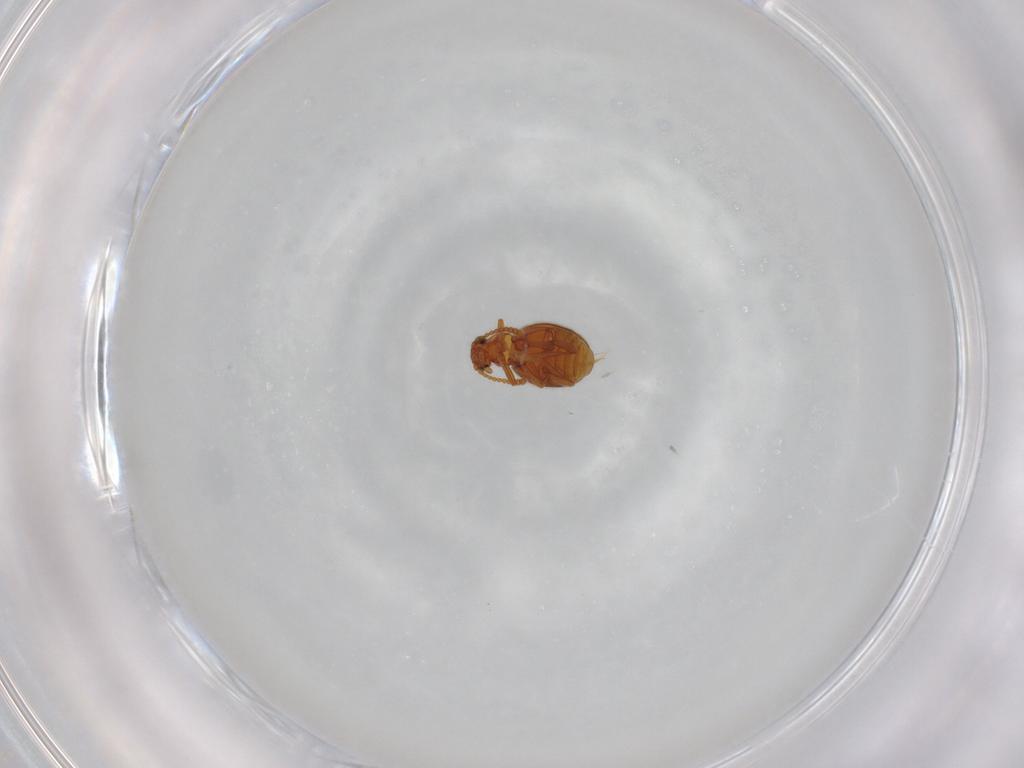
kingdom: Animalia
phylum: Arthropoda
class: Insecta
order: Coleoptera
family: Aderidae
